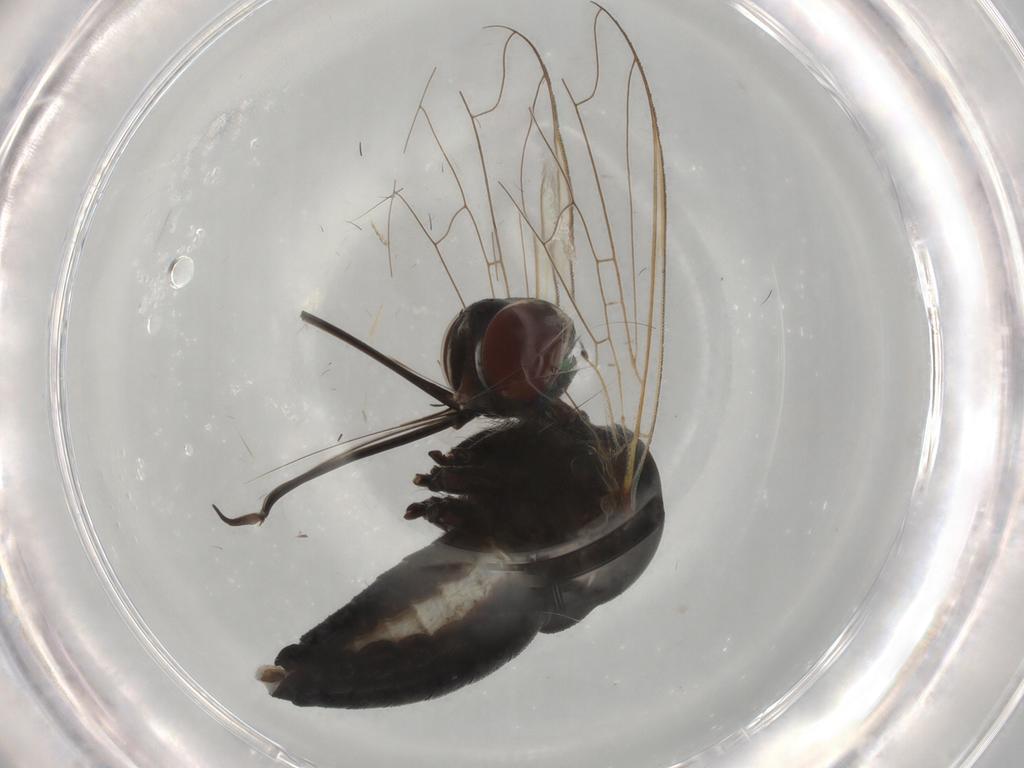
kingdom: Animalia
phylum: Arthropoda
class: Insecta
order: Diptera
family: Bombyliidae
